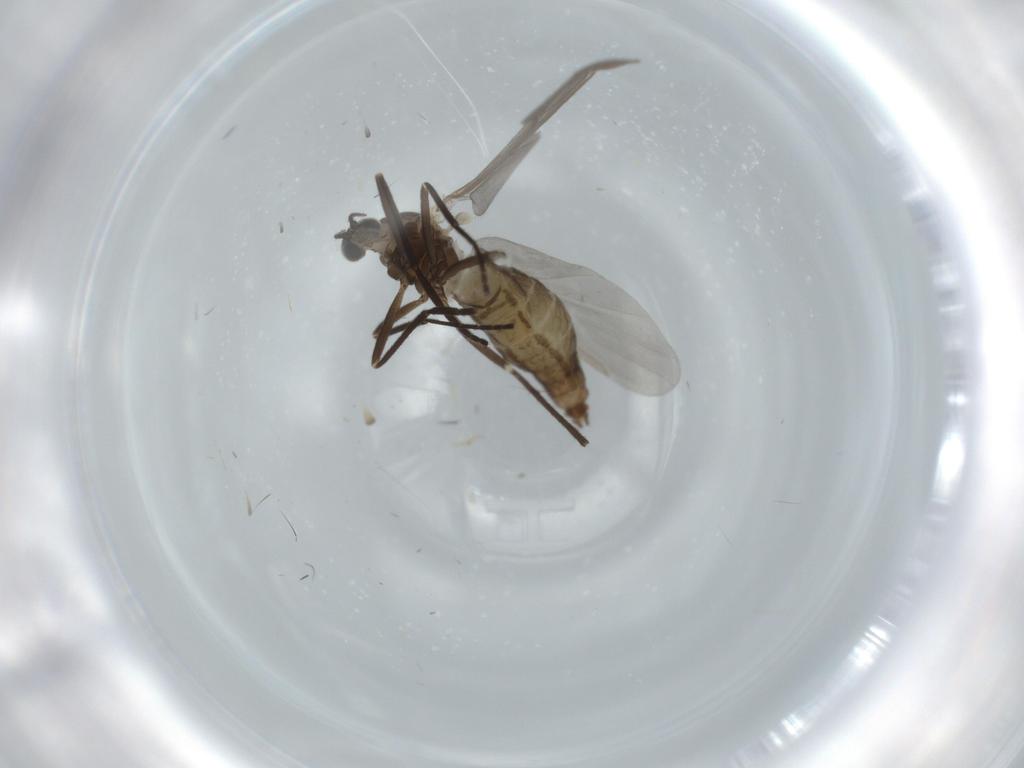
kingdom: Animalia
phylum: Arthropoda
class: Insecta
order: Diptera
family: Cecidomyiidae
